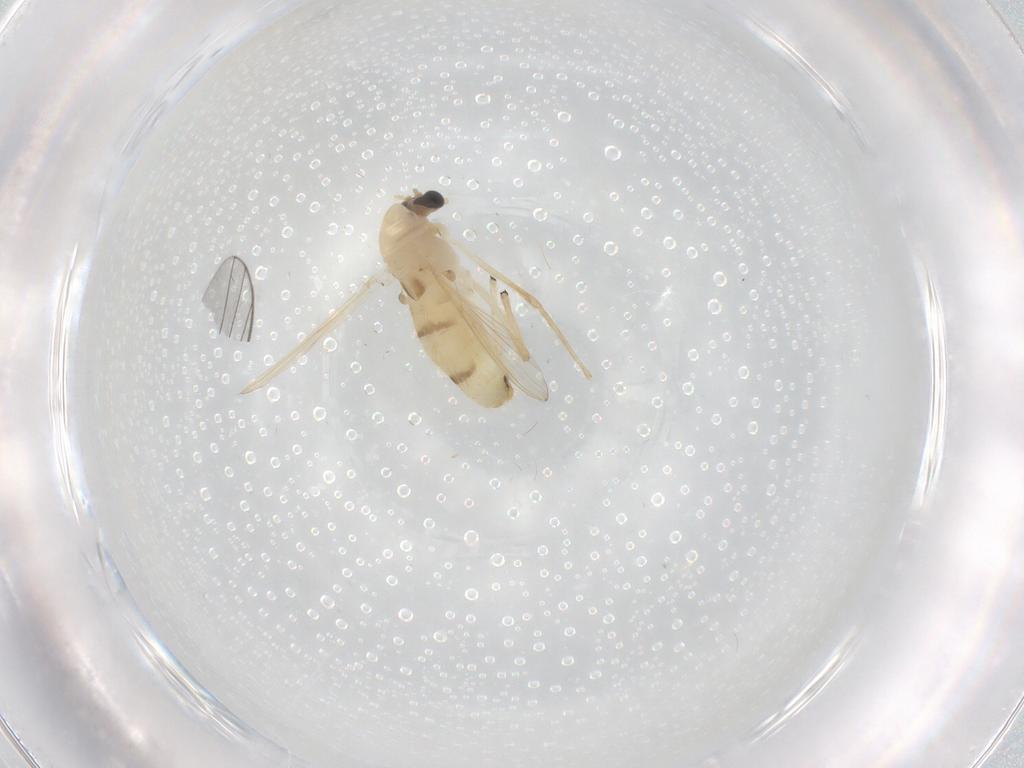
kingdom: Animalia
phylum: Arthropoda
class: Insecta
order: Diptera
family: Chironomidae
